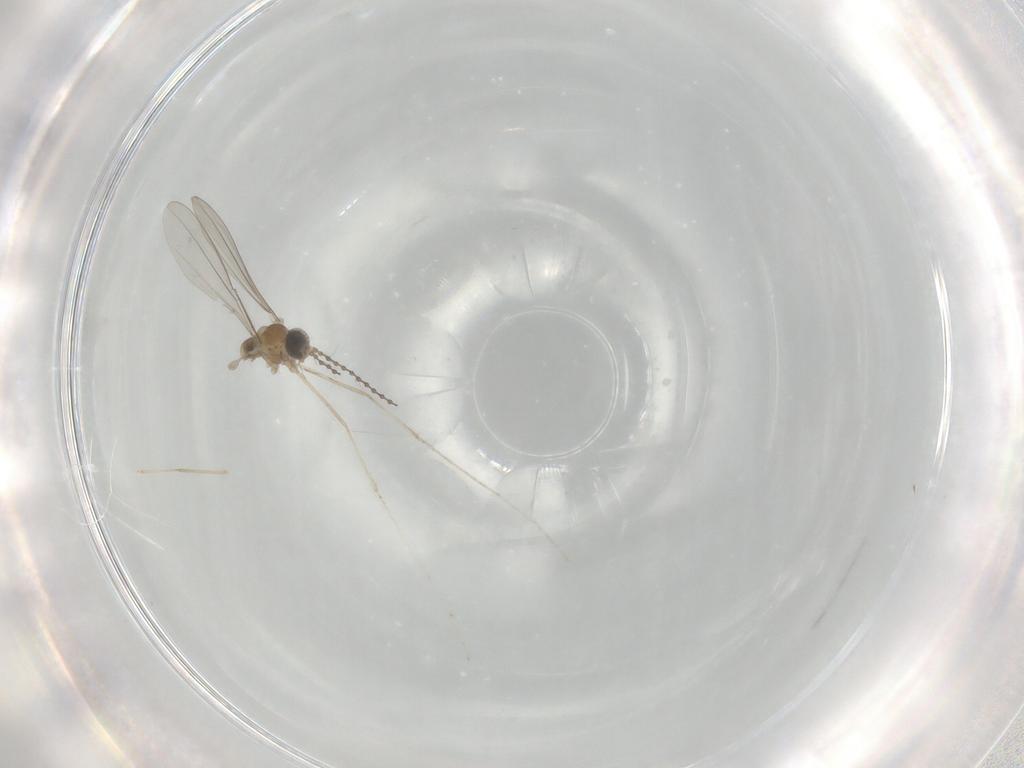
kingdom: Animalia
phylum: Arthropoda
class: Insecta
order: Diptera
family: Cecidomyiidae
